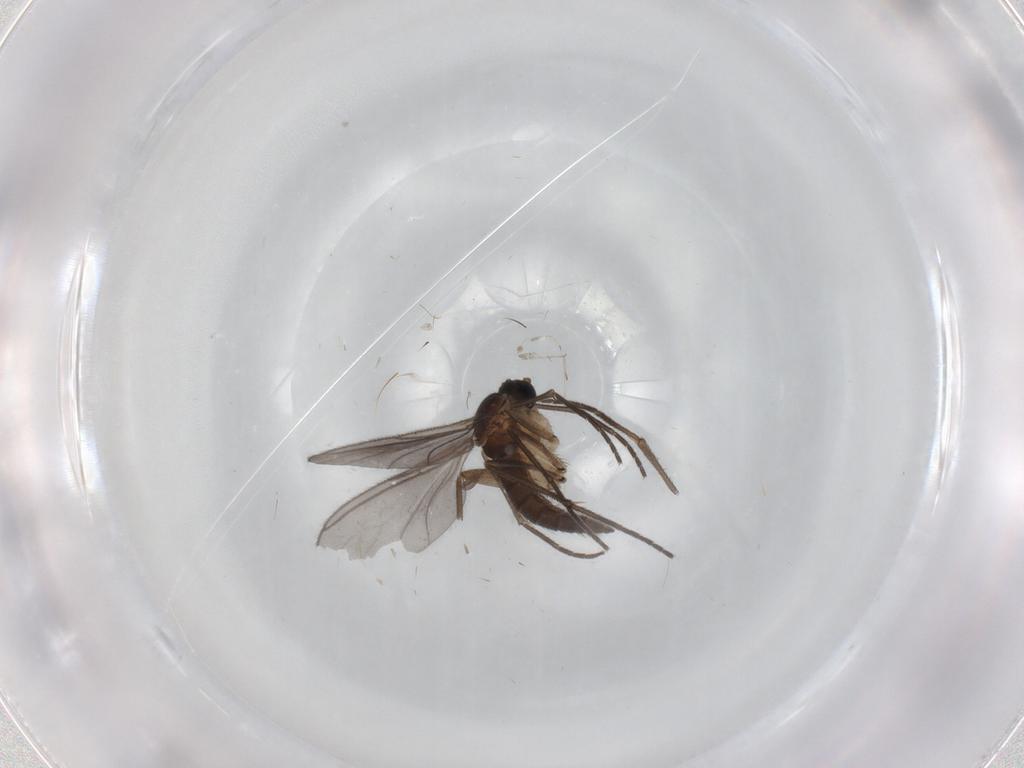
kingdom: Animalia
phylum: Arthropoda
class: Insecta
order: Diptera
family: Sciaridae
